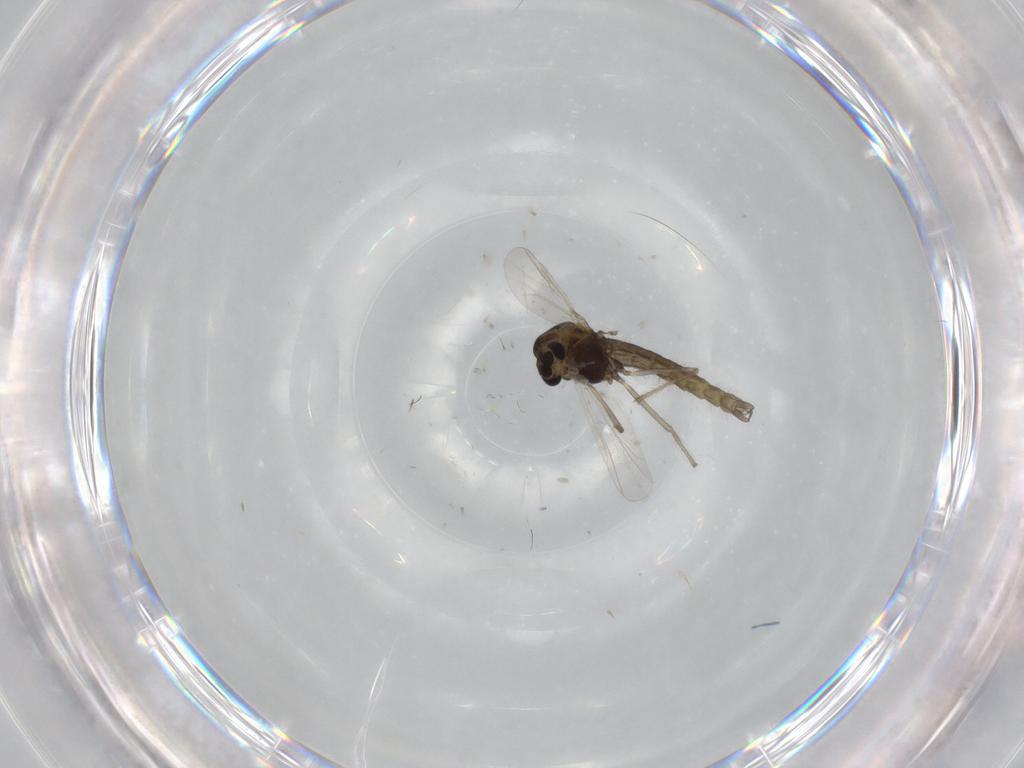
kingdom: Animalia
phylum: Arthropoda
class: Insecta
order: Diptera
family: Chironomidae
